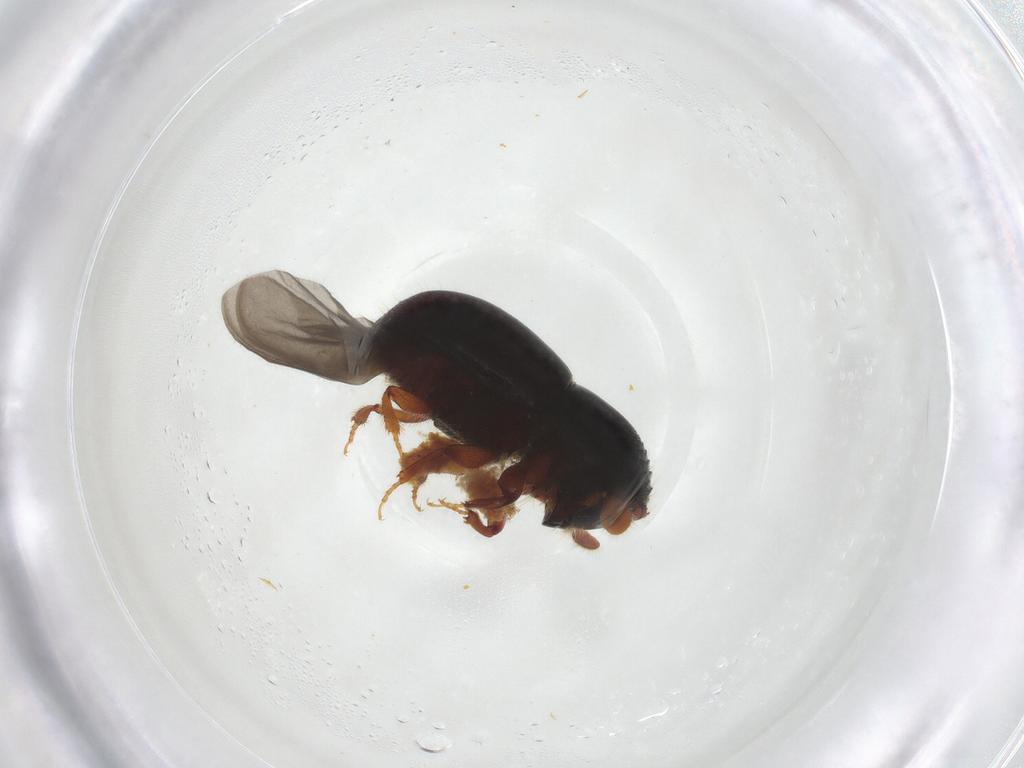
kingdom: Animalia
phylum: Arthropoda
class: Insecta
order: Coleoptera
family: Curculionidae
